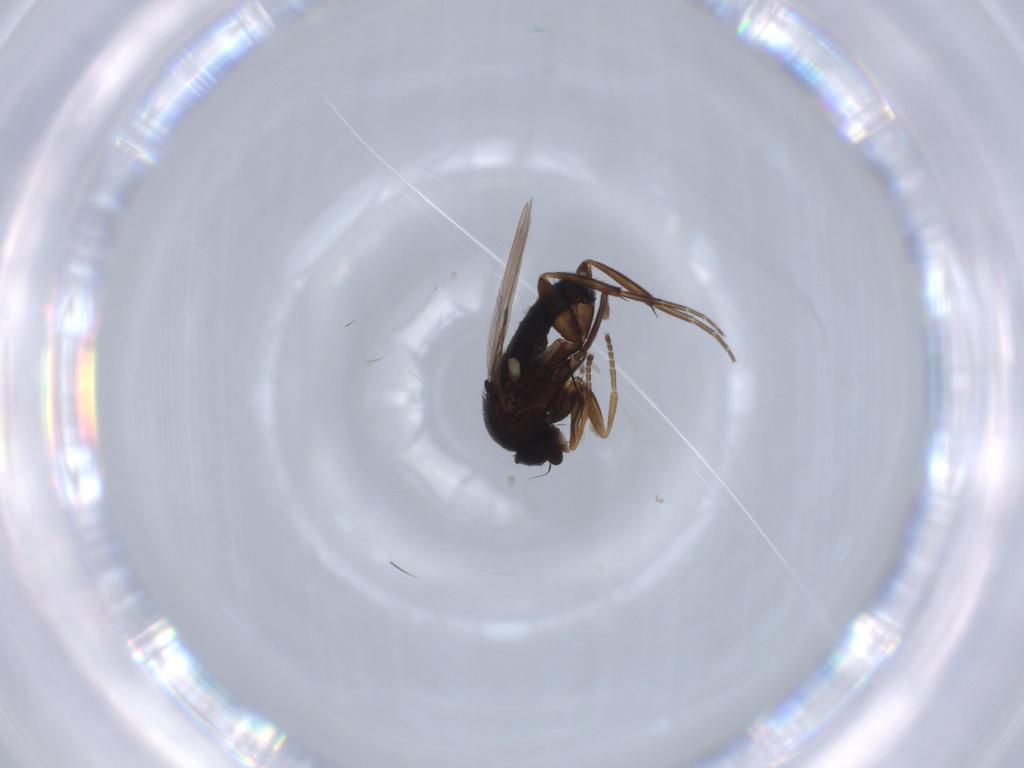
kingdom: Animalia
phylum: Arthropoda
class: Insecta
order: Diptera
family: Phoridae
